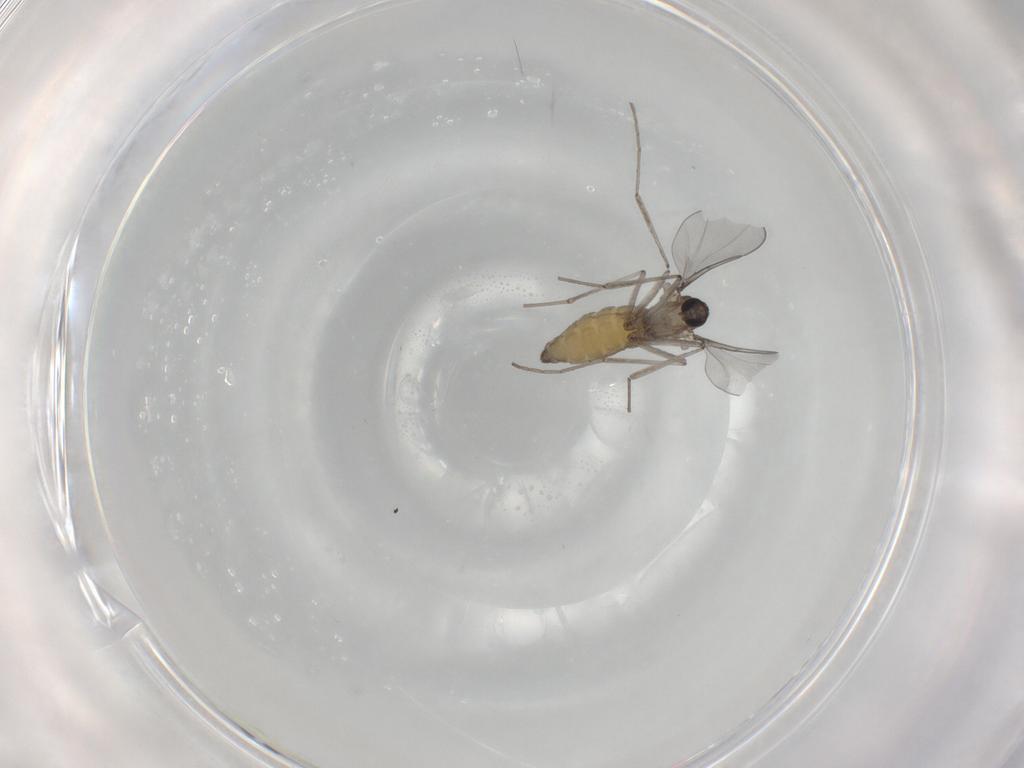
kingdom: Animalia
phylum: Arthropoda
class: Insecta
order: Diptera
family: Cecidomyiidae
